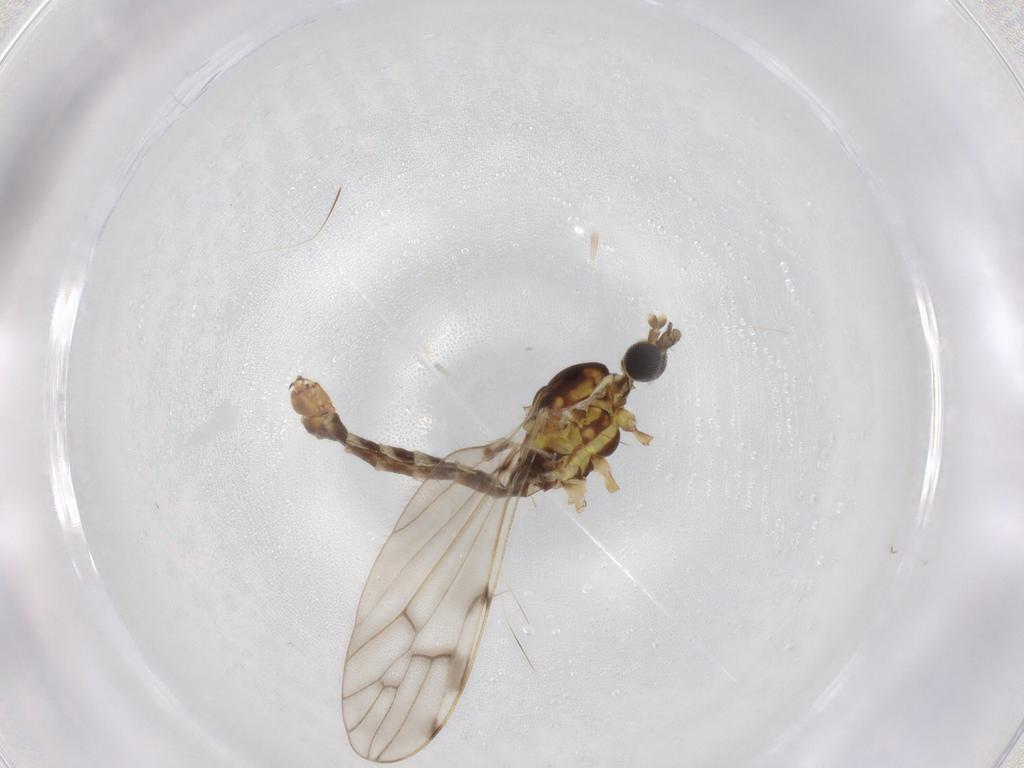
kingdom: Animalia
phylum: Arthropoda
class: Insecta
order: Diptera
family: Limoniidae
